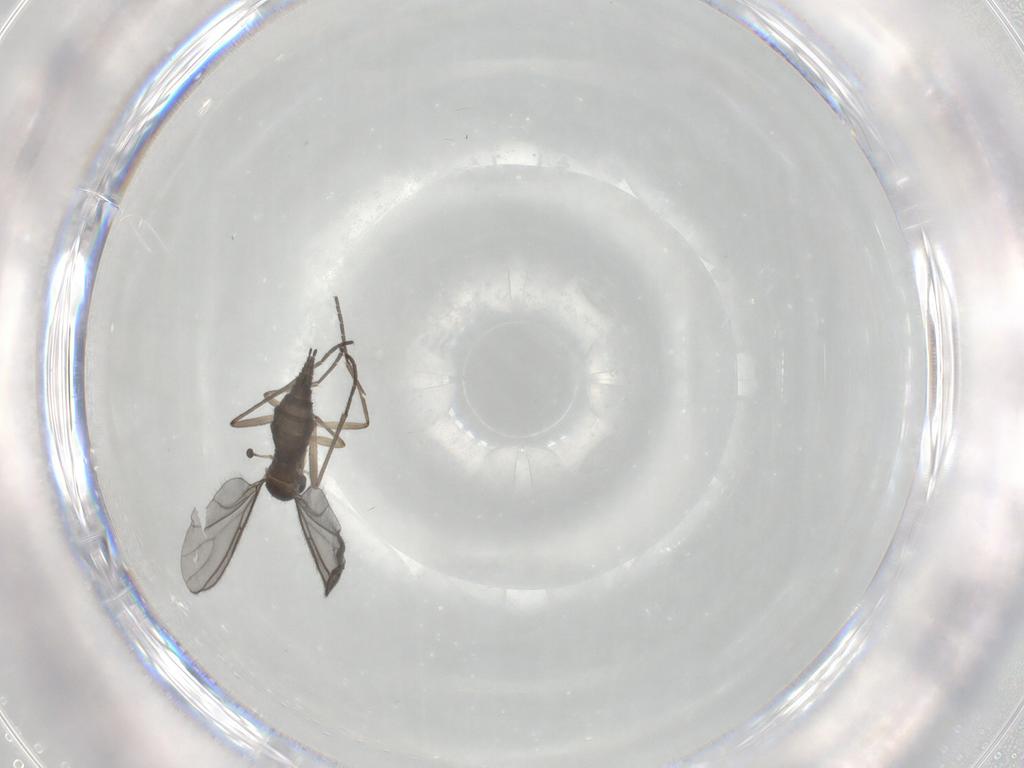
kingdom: Animalia
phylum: Arthropoda
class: Insecta
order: Diptera
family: Sciaridae
